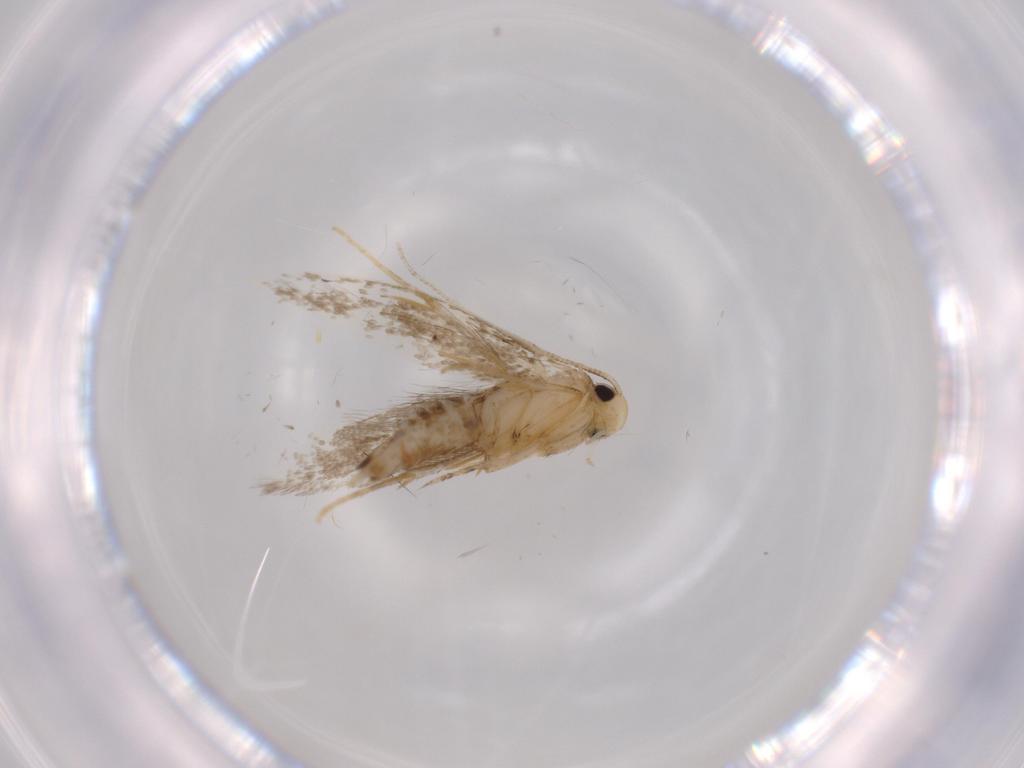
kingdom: Animalia
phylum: Arthropoda
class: Insecta
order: Lepidoptera
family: Tineidae
